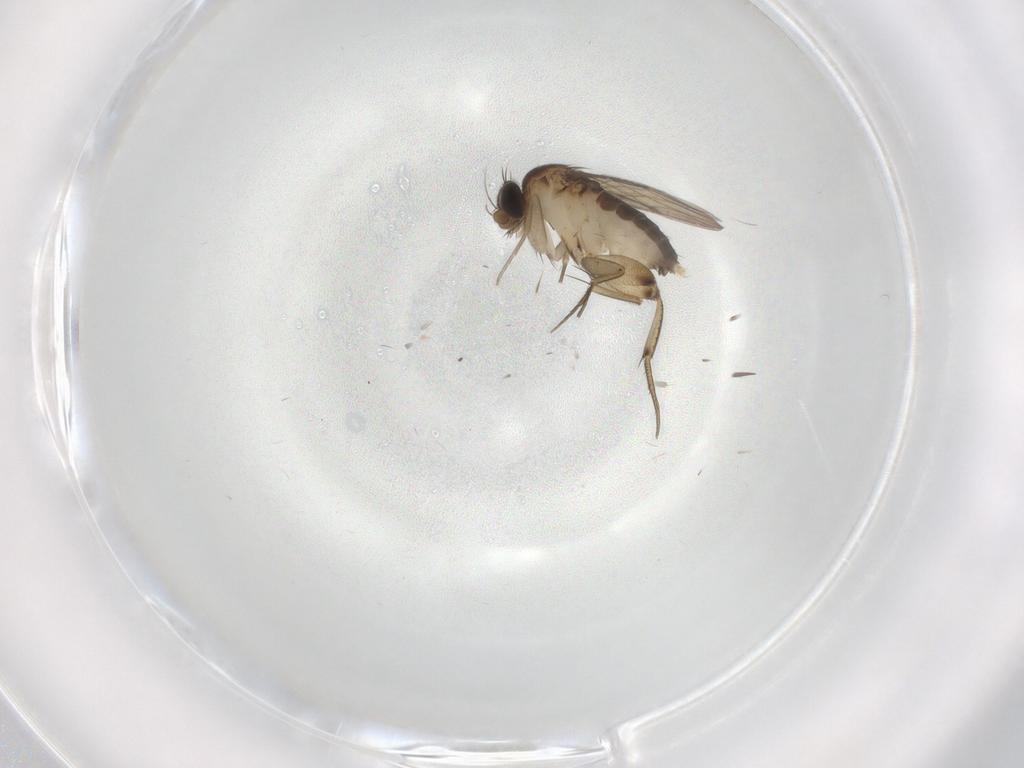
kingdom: Animalia
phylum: Arthropoda
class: Insecta
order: Diptera
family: Phoridae
